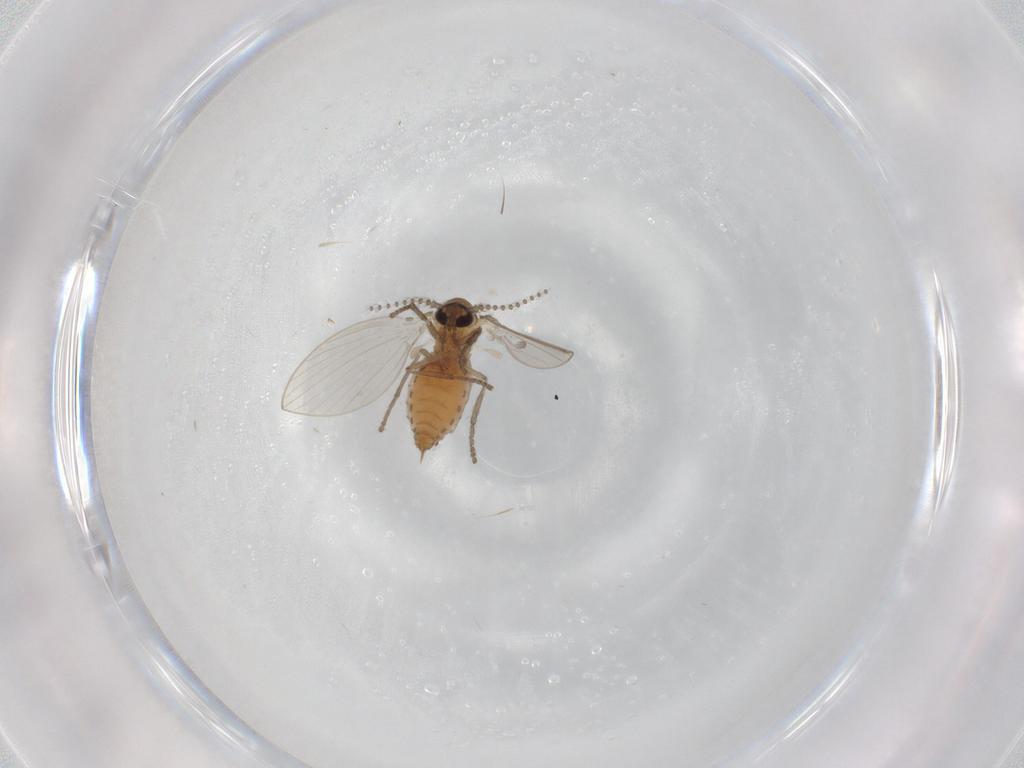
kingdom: Animalia
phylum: Arthropoda
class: Insecta
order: Diptera
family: Psychodidae
